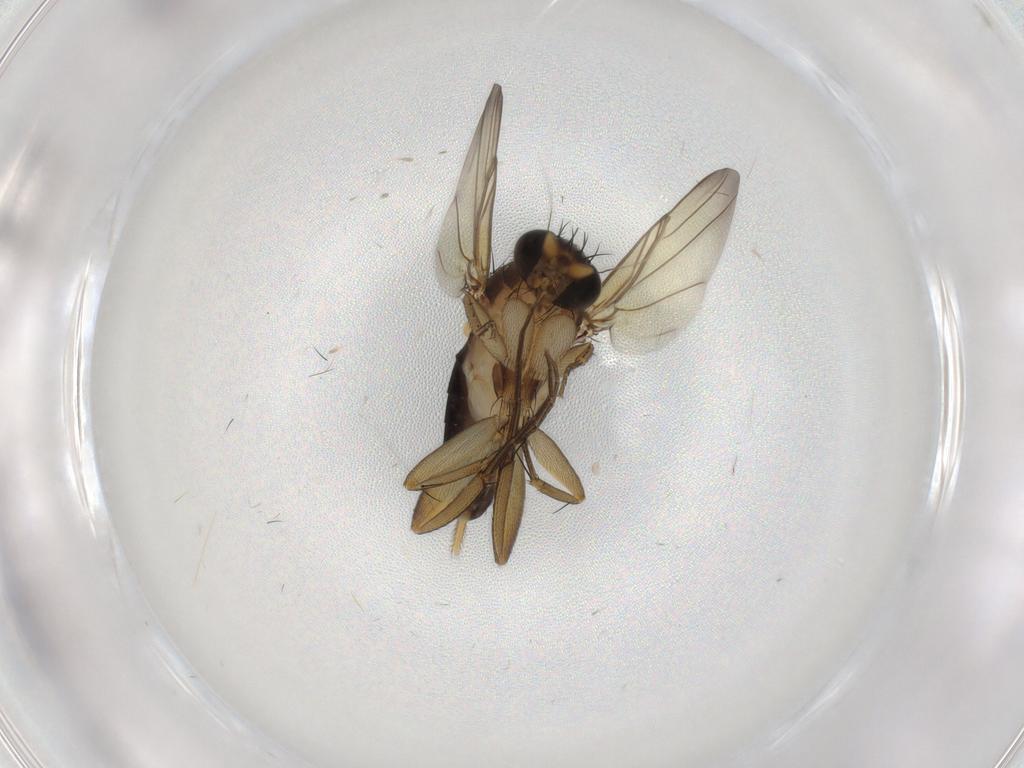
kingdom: Animalia
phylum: Arthropoda
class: Insecta
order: Diptera
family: Phoridae
